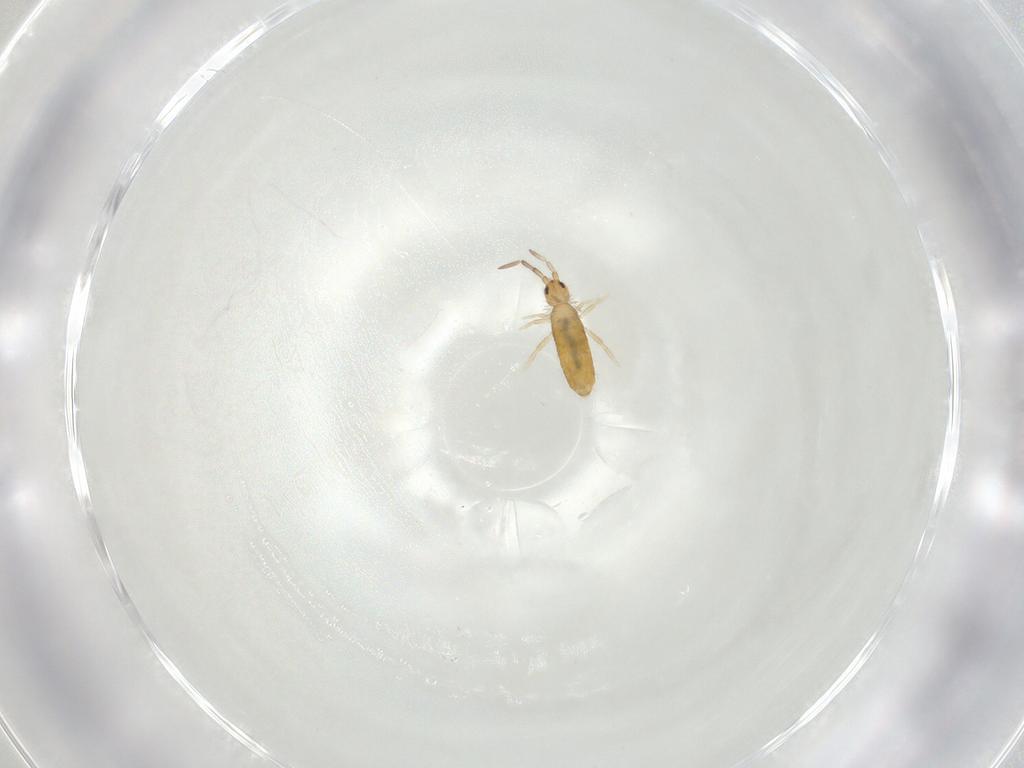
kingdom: Animalia
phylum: Arthropoda
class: Collembola
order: Entomobryomorpha
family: Entomobryidae
